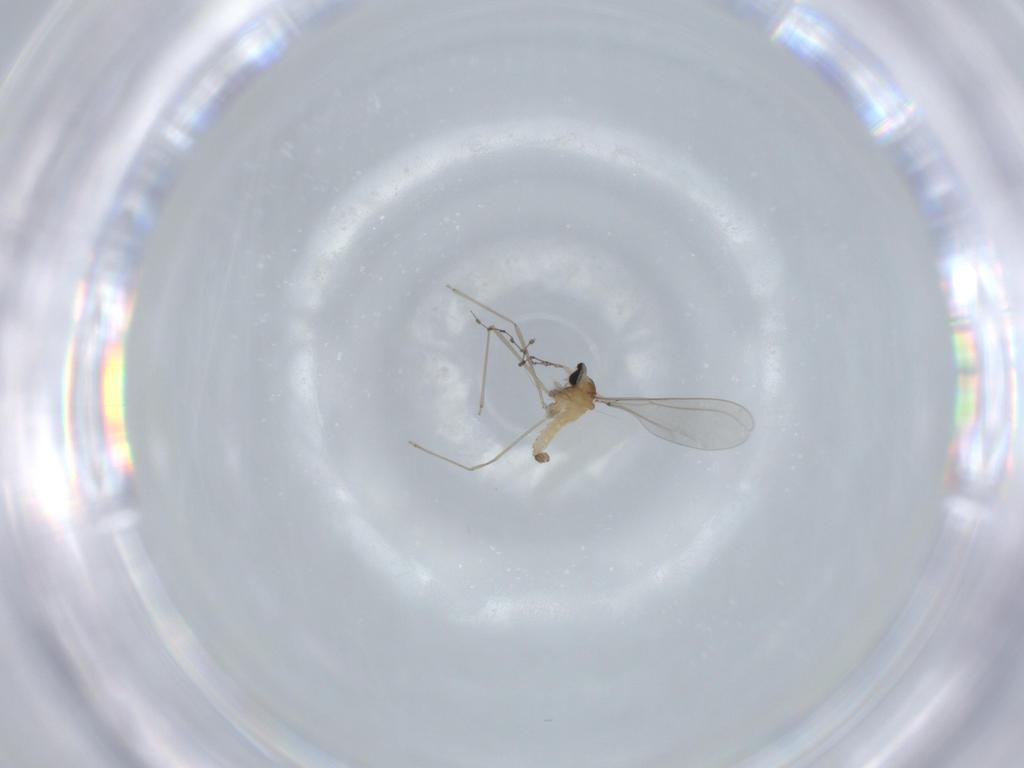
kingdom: Animalia
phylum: Arthropoda
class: Insecta
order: Diptera
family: Cecidomyiidae
